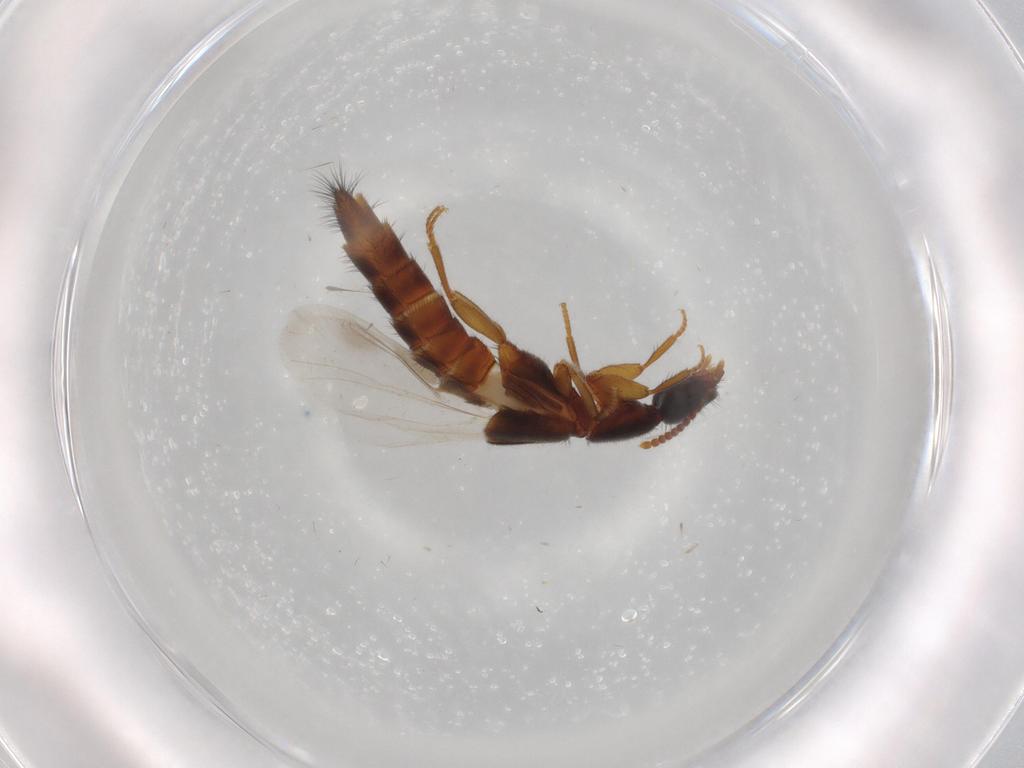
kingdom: Animalia
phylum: Arthropoda
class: Insecta
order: Coleoptera
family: Staphylinidae
